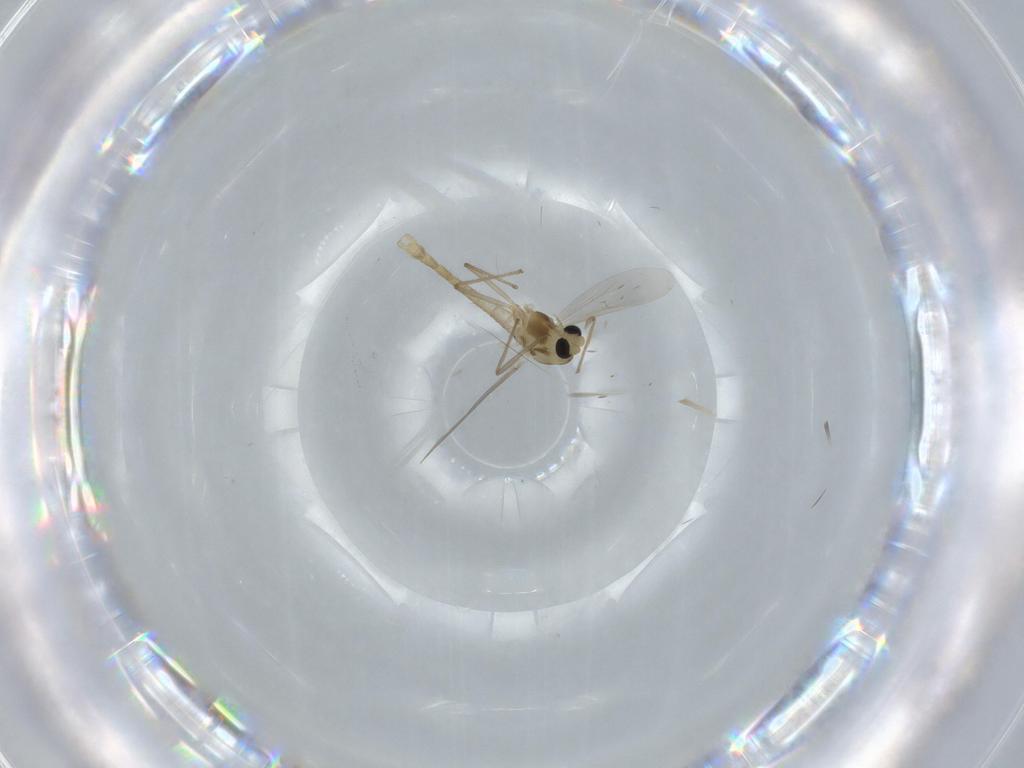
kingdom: Animalia
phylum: Arthropoda
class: Insecta
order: Diptera
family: Chironomidae
